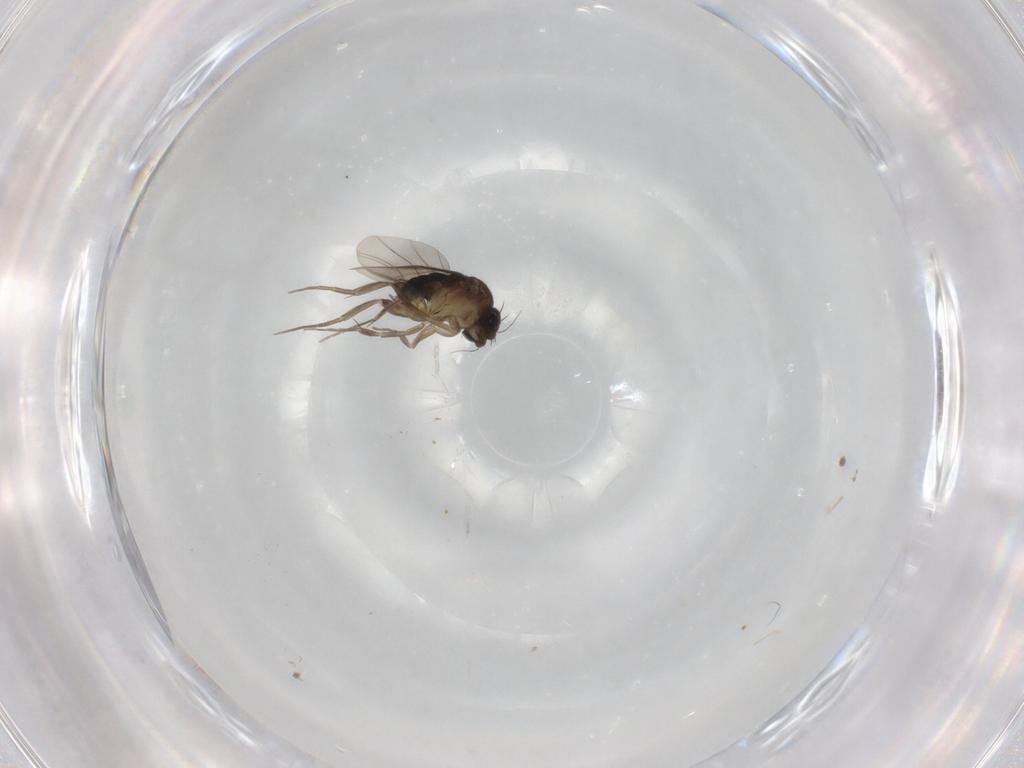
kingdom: Animalia
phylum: Arthropoda
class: Insecta
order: Diptera
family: Phoridae
